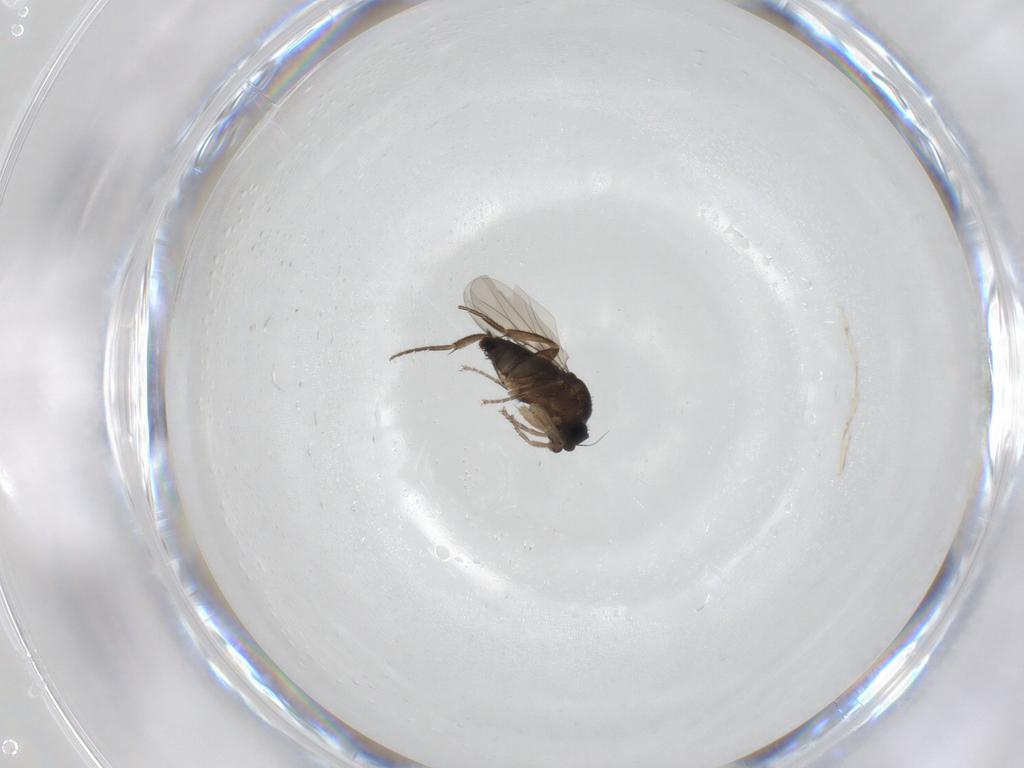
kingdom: Animalia
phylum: Arthropoda
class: Insecta
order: Diptera
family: Phoridae
